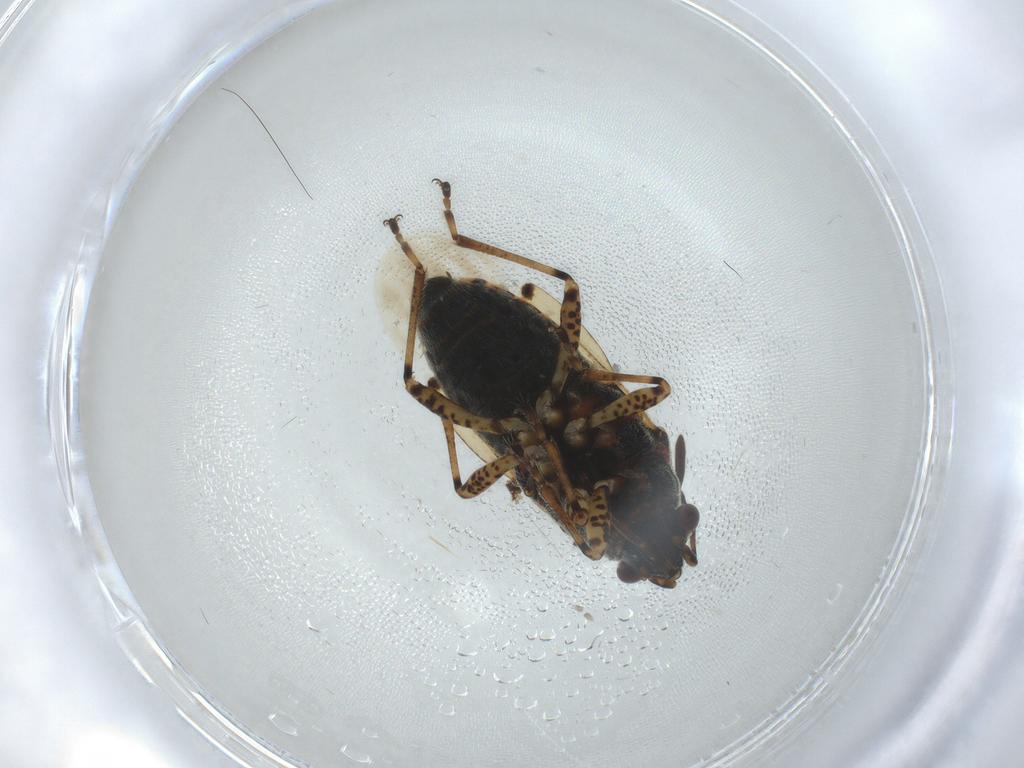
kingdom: Animalia
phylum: Arthropoda
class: Insecta
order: Hemiptera
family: Lygaeidae
